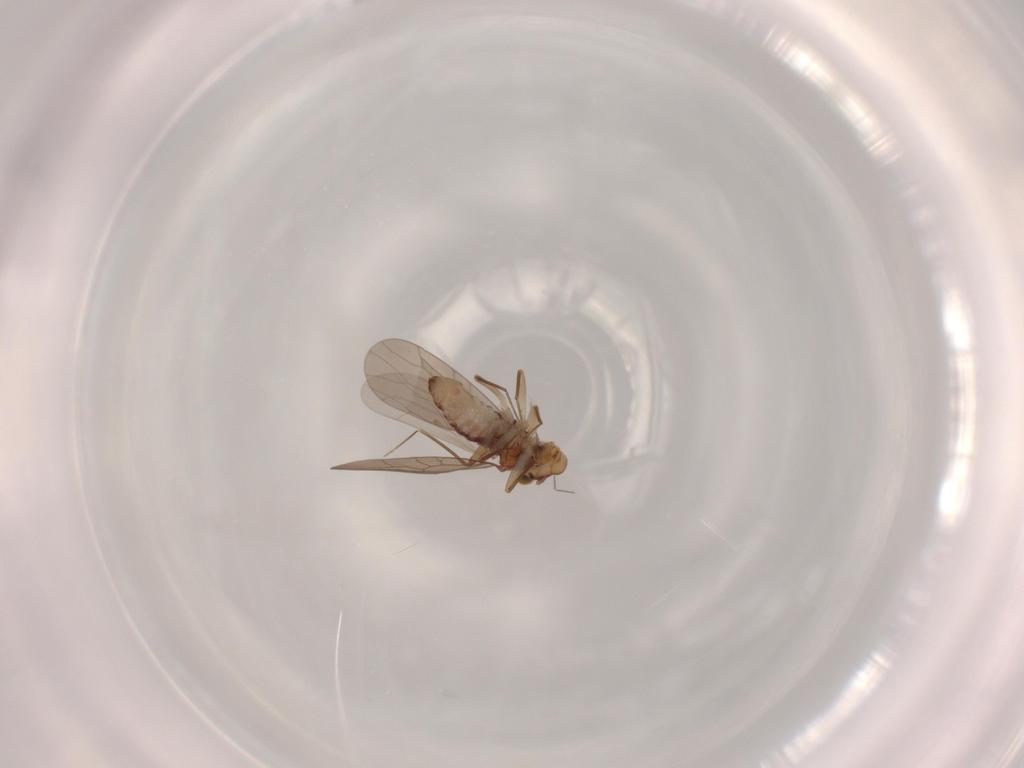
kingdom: Animalia
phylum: Arthropoda
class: Insecta
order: Psocodea
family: Lepidopsocidae
